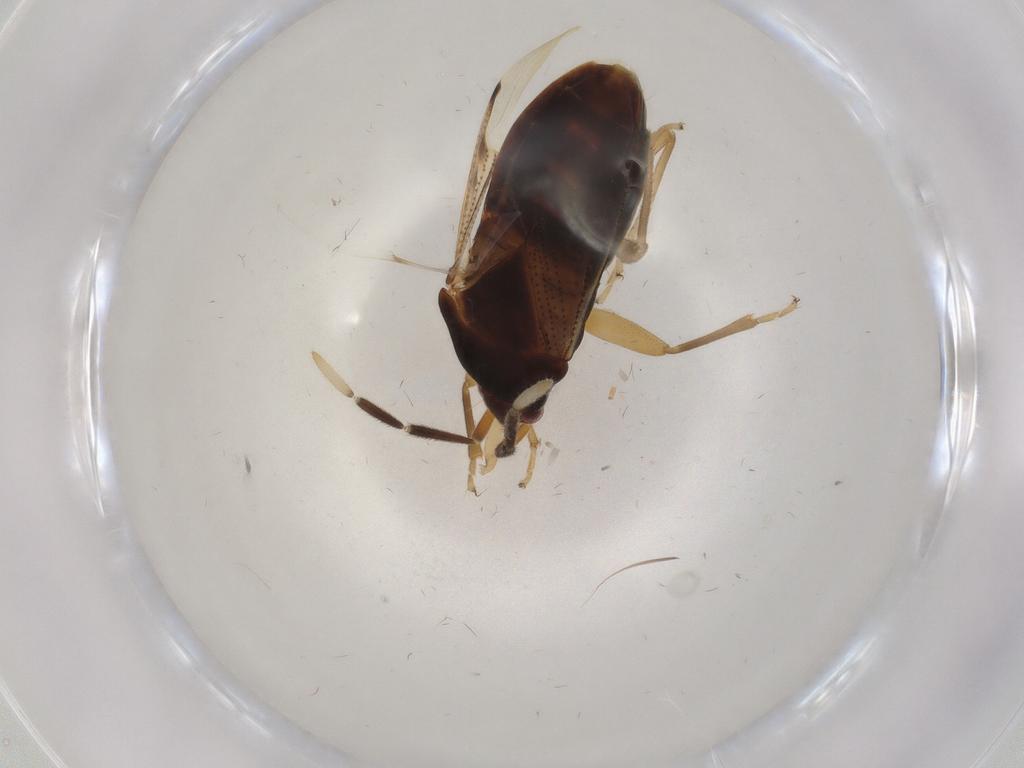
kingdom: Animalia
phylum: Arthropoda
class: Insecta
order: Hemiptera
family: Rhyparochromidae
